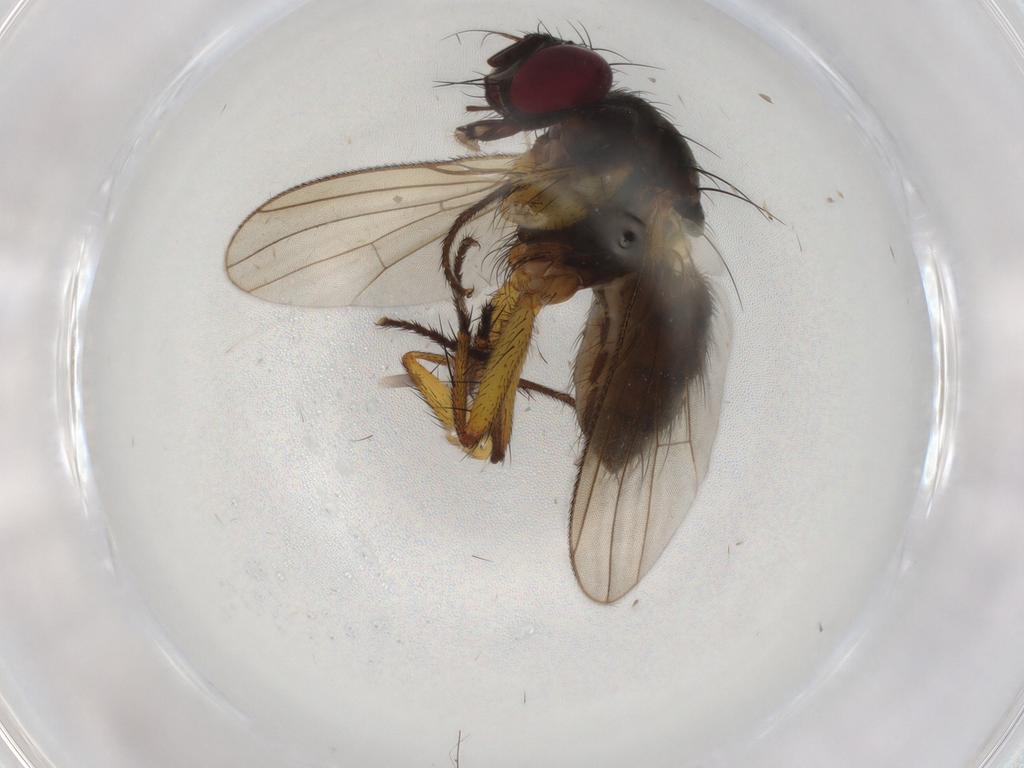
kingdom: Animalia
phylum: Arthropoda
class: Insecta
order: Diptera
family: Muscidae
